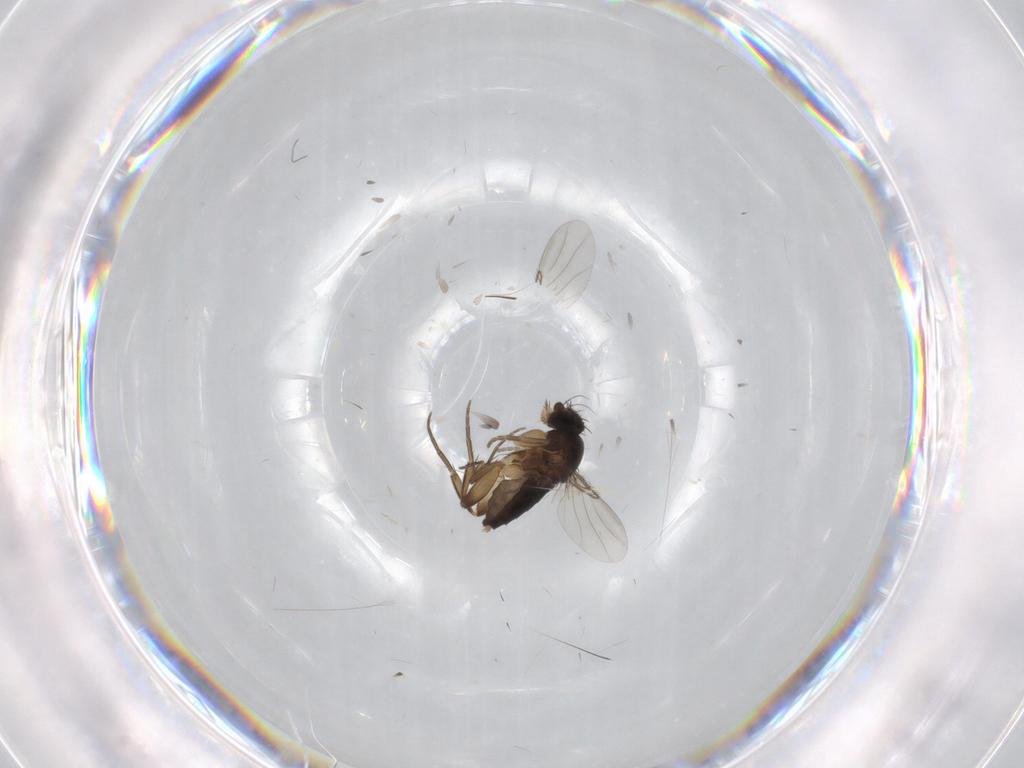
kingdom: Animalia
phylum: Arthropoda
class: Insecta
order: Diptera
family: Phoridae
